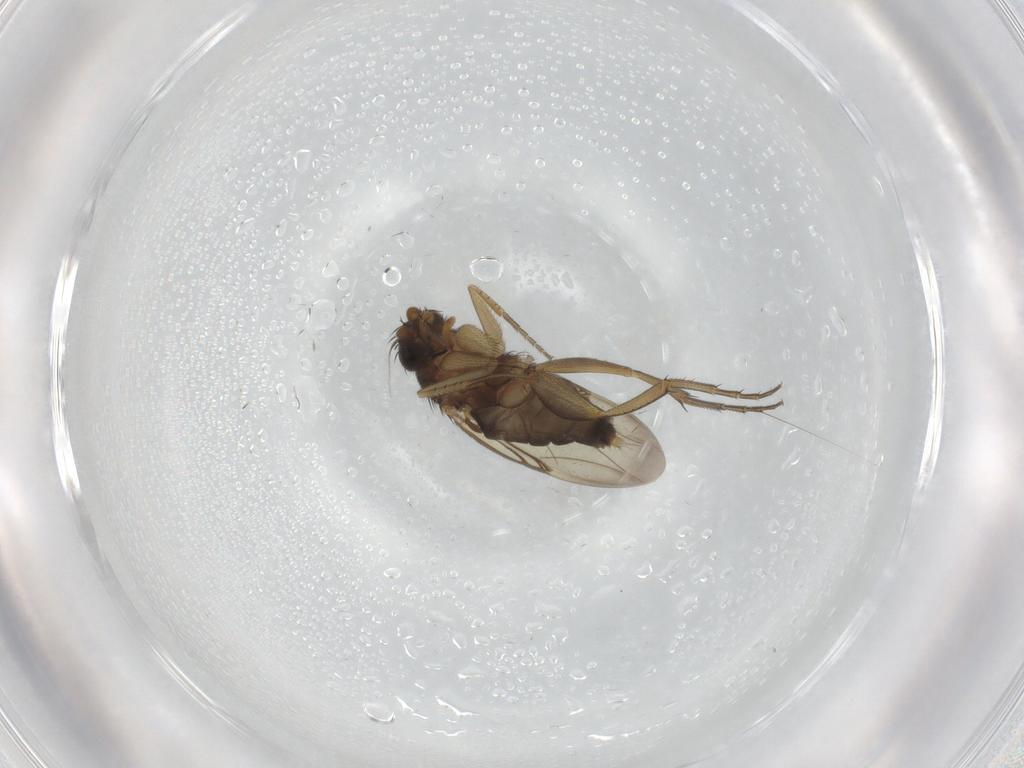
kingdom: Animalia
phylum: Arthropoda
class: Insecta
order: Diptera
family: Phoridae
